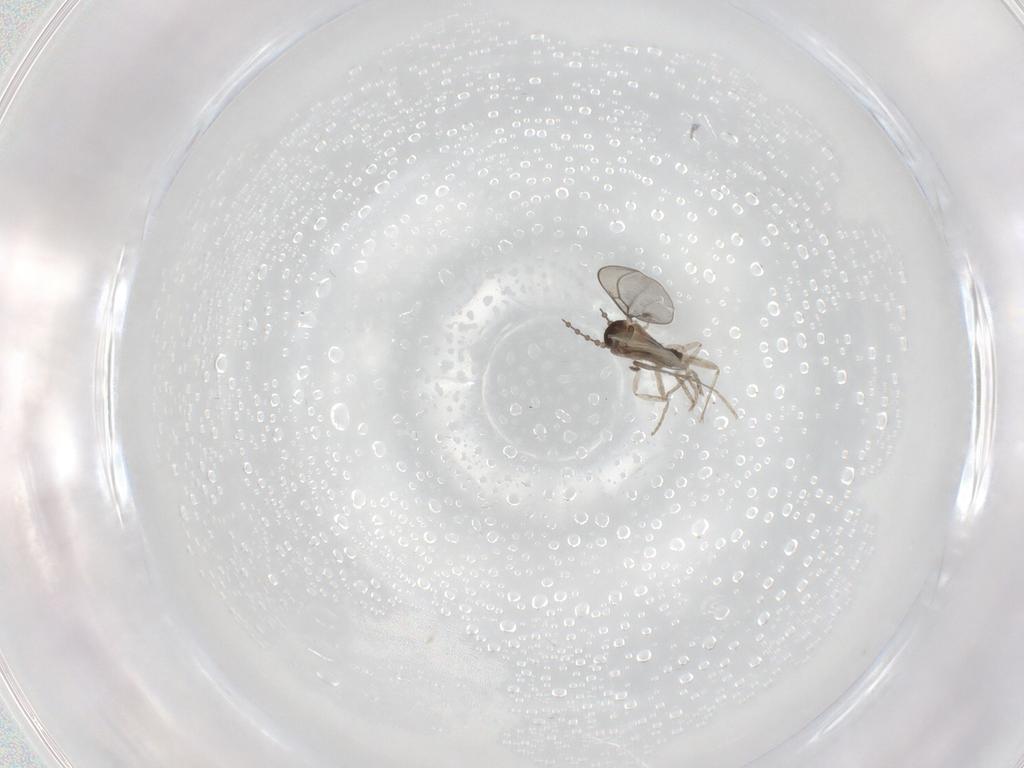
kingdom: Animalia
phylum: Arthropoda
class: Insecta
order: Diptera
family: Cecidomyiidae
